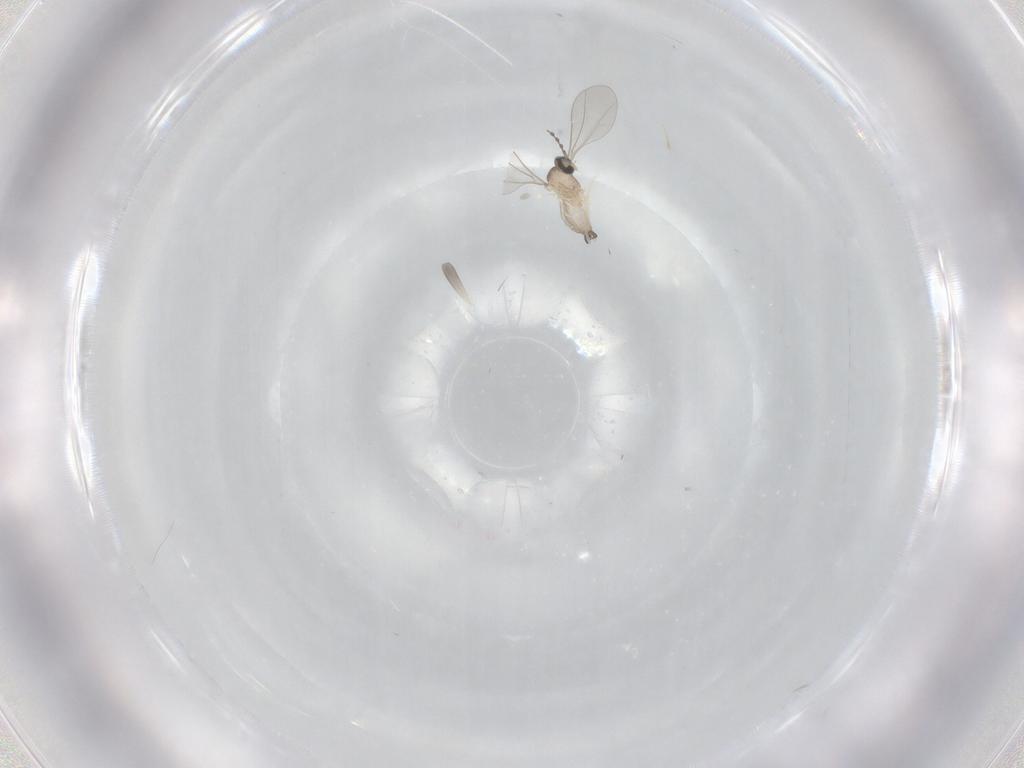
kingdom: Animalia
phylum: Arthropoda
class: Insecta
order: Diptera
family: Cecidomyiidae
